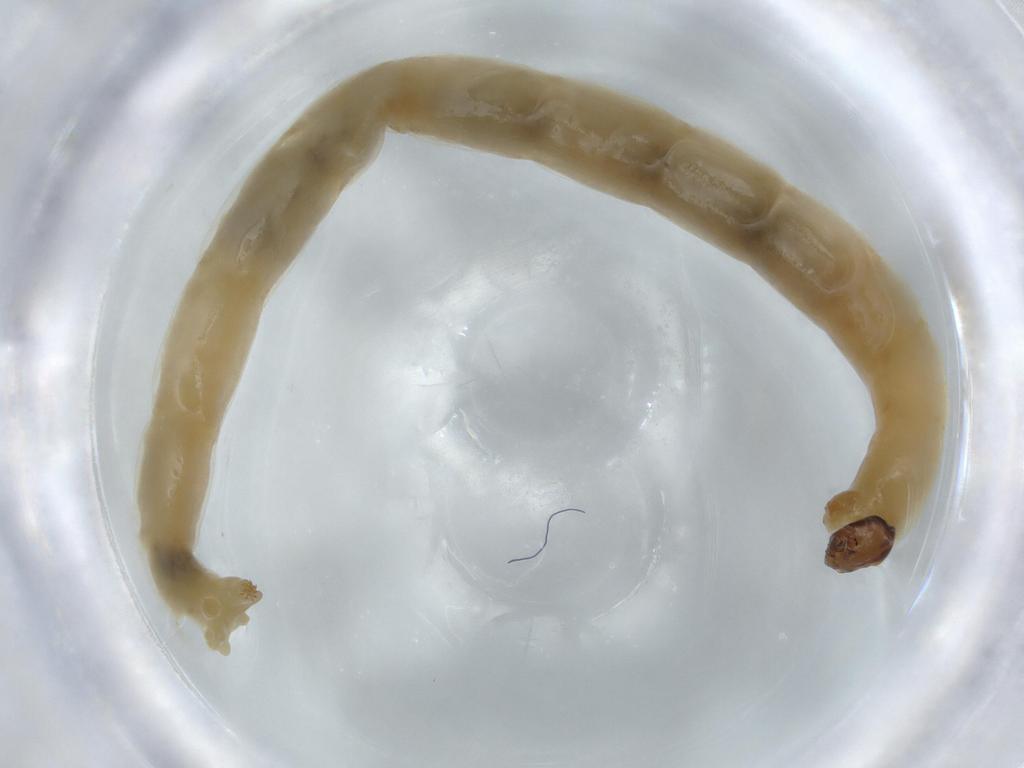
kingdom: Animalia
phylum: Arthropoda
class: Insecta
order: Diptera
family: Chironomidae
